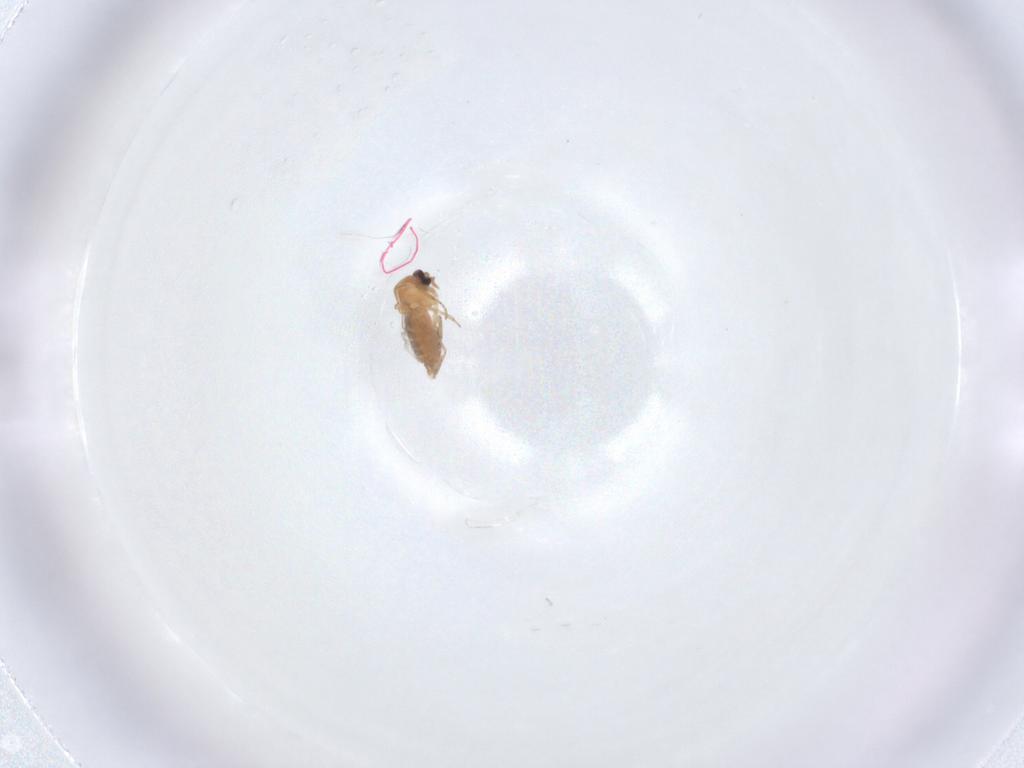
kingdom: Animalia
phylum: Arthropoda
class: Insecta
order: Diptera
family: Ceratopogonidae
